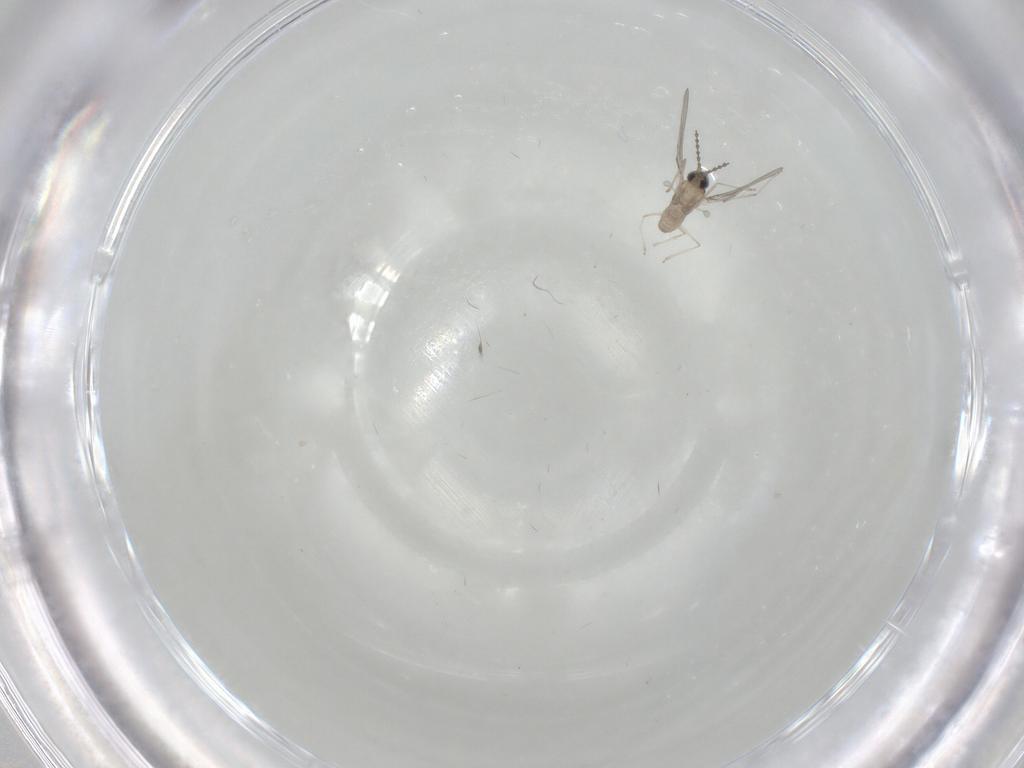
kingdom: Animalia
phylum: Arthropoda
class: Insecta
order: Diptera
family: Cecidomyiidae
